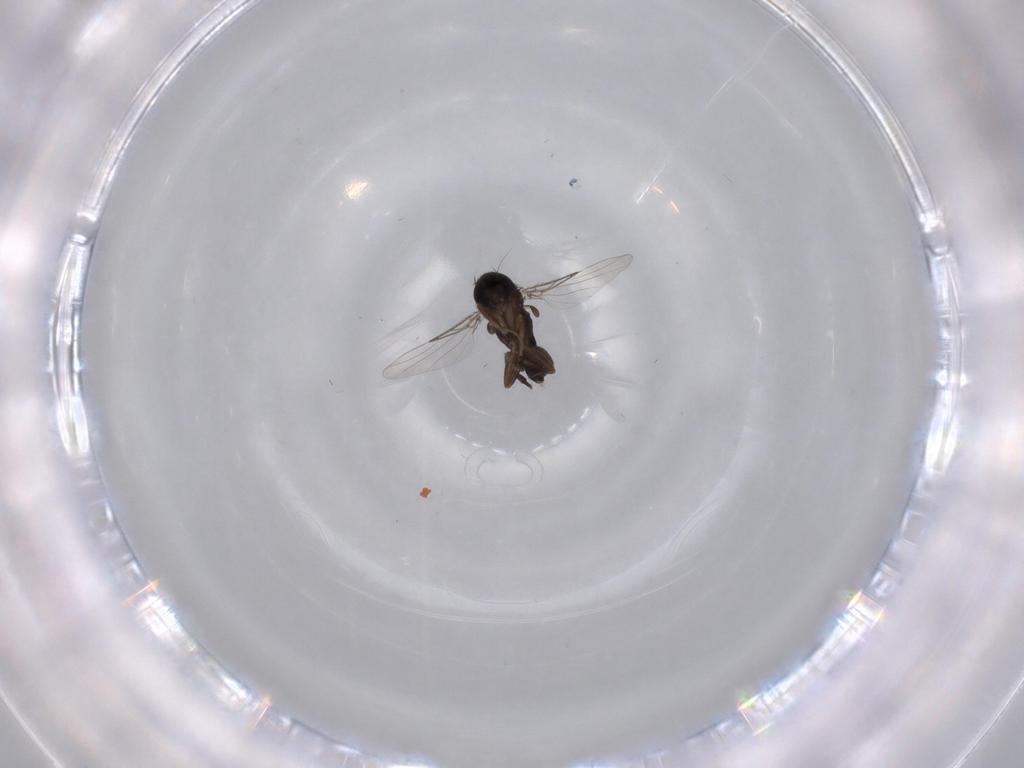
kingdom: Animalia
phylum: Arthropoda
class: Insecta
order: Diptera
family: Phoridae
